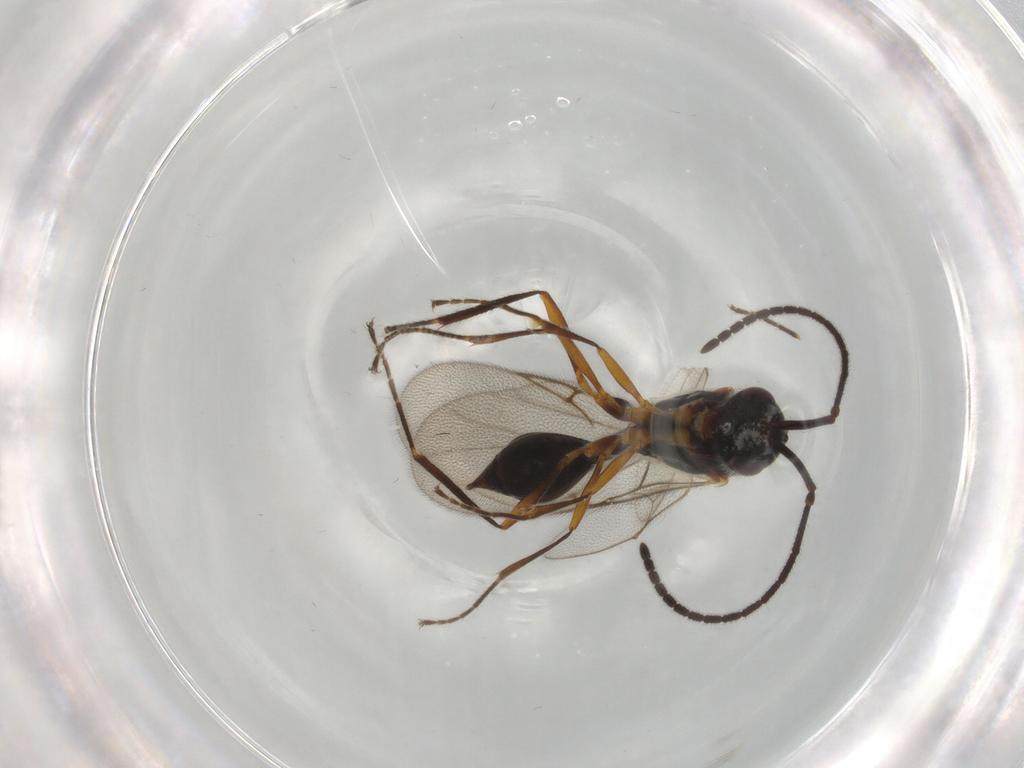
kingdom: Animalia
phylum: Arthropoda
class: Insecta
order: Hymenoptera
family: Diapriidae
